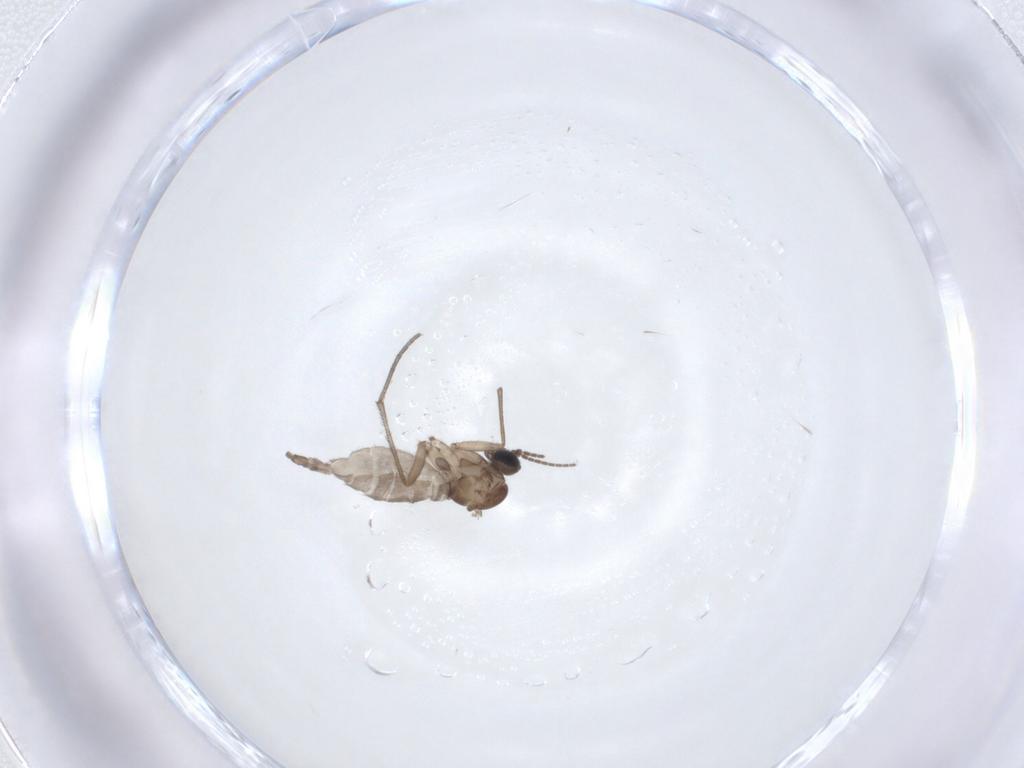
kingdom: Animalia
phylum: Arthropoda
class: Insecta
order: Diptera
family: Sciaridae
